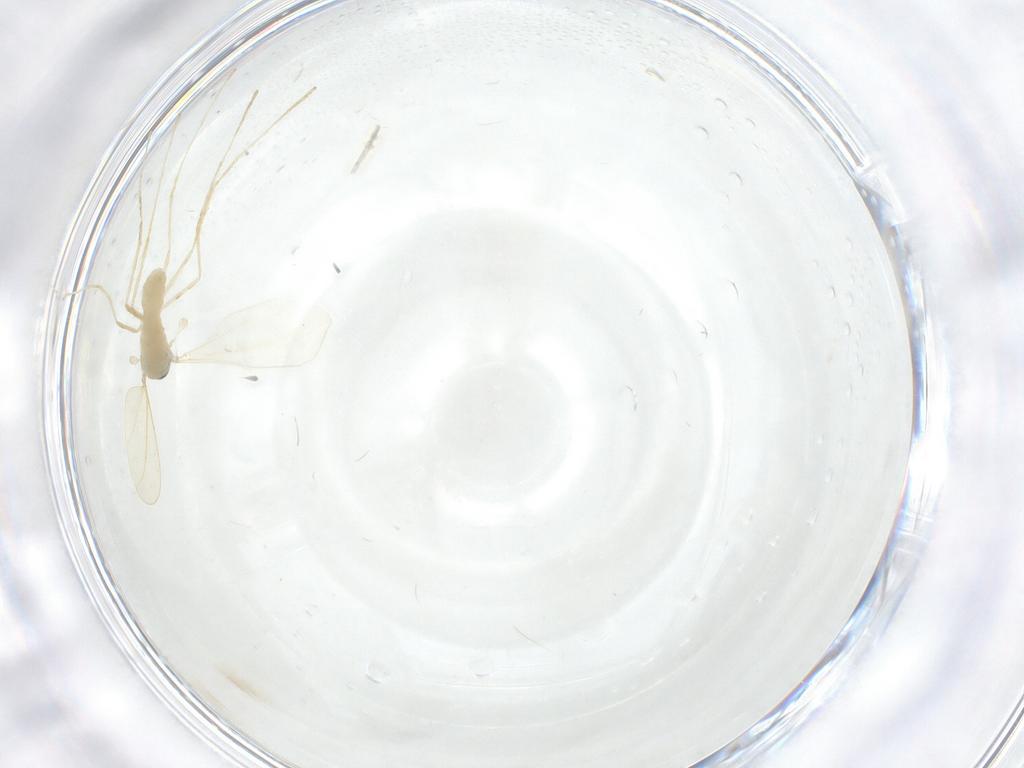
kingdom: Animalia
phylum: Arthropoda
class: Insecta
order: Diptera
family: Cecidomyiidae
